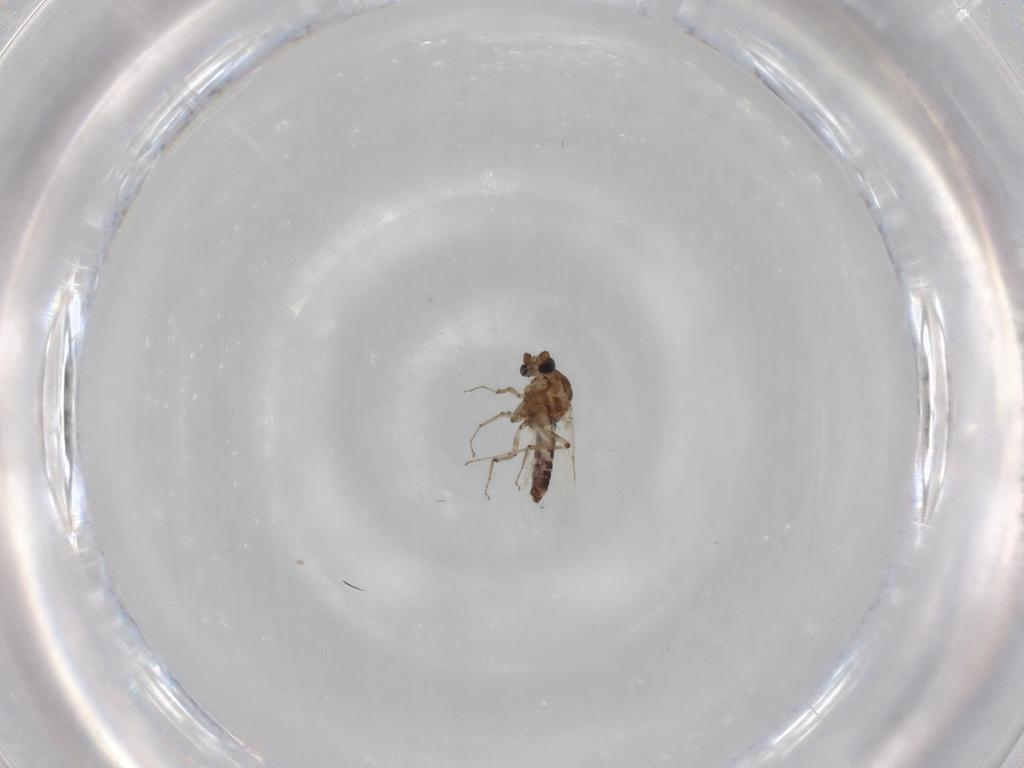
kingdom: Animalia
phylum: Arthropoda
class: Insecta
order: Diptera
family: Ceratopogonidae
